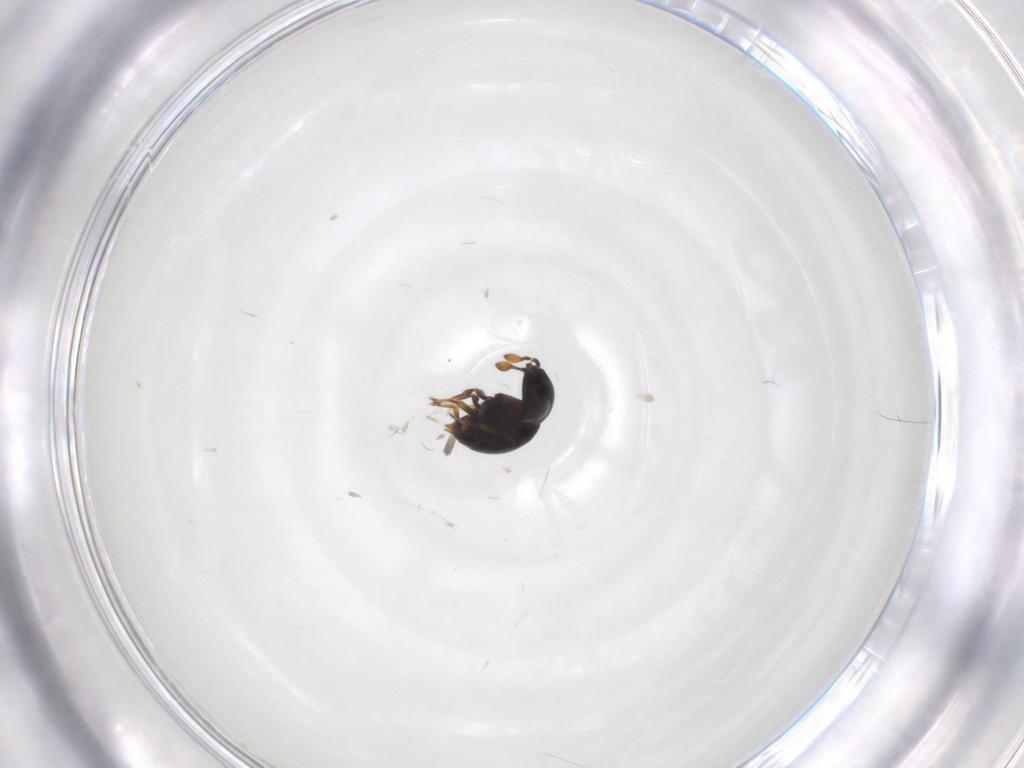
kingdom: Animalia
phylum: Arthropoda
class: Insecta
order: Hymenoptera
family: Scelionidae
